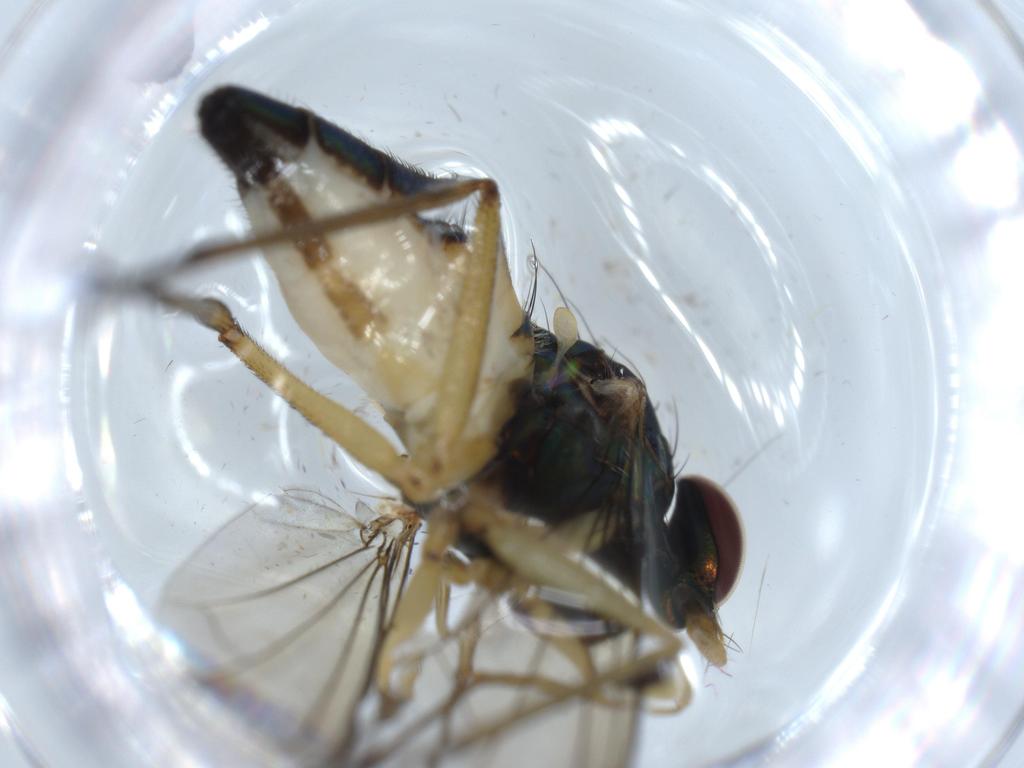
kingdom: Animalia
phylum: Arthropoda
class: Insecta
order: Diptera
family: Dolichopodidae
